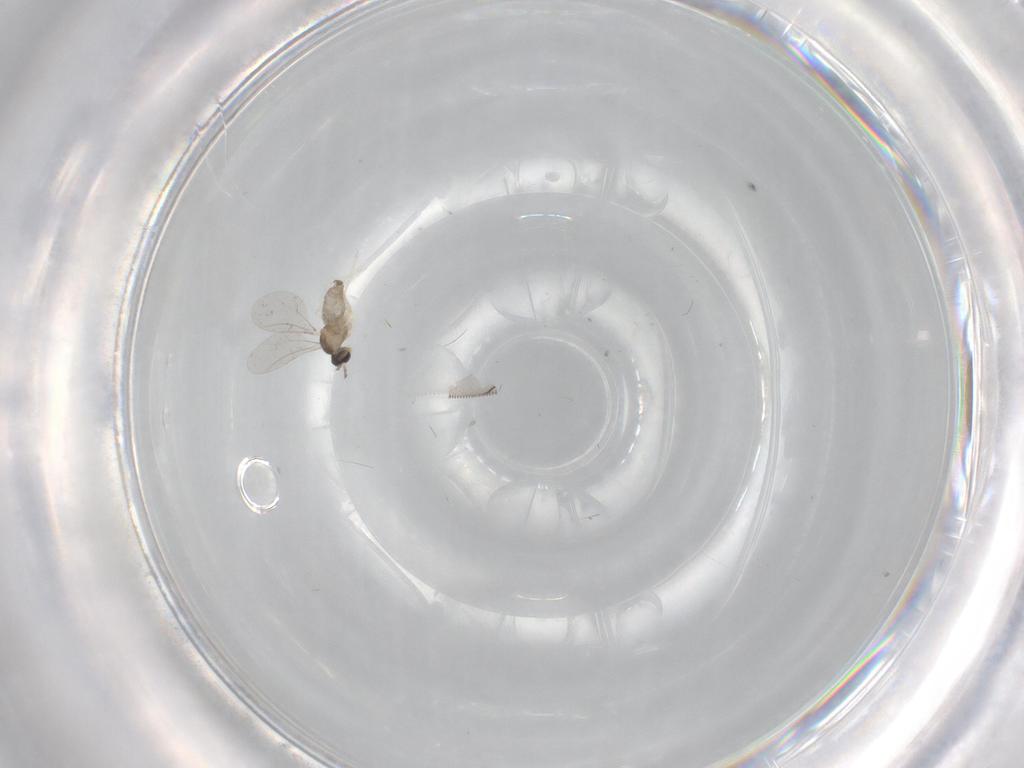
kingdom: Animalia
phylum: Arthropoda
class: Insecta
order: Diptera
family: Cecidomyiidae
